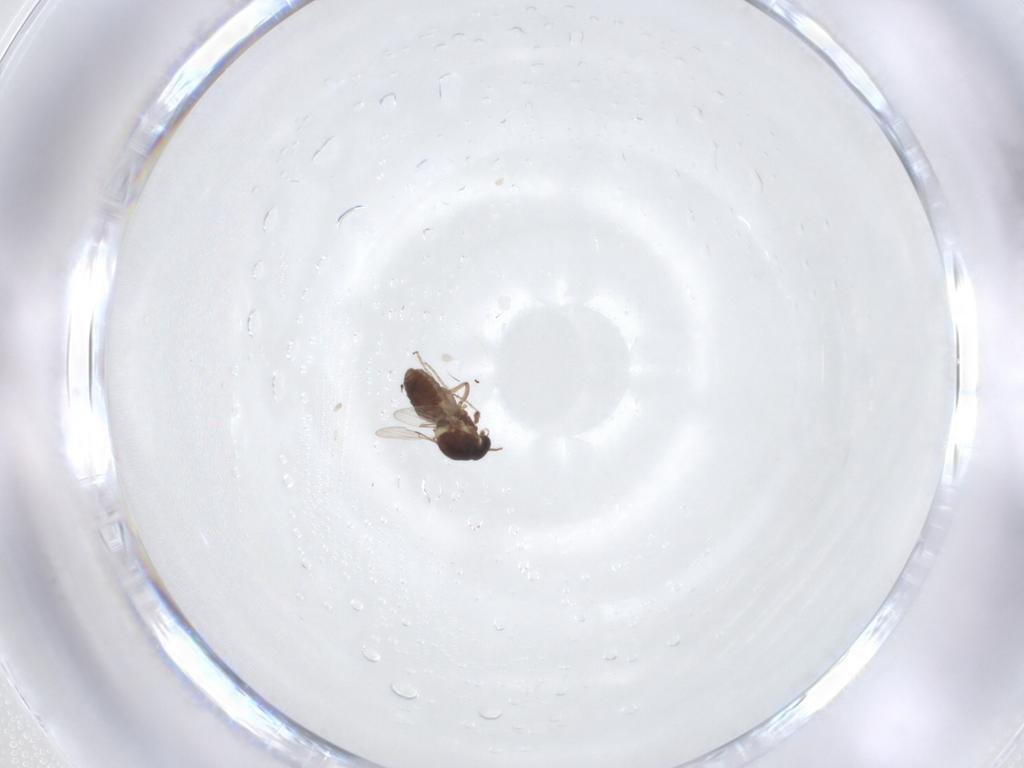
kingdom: Animalia
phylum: Arthropoda
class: Insecta
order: Diptera
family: Ceratopogonidae
